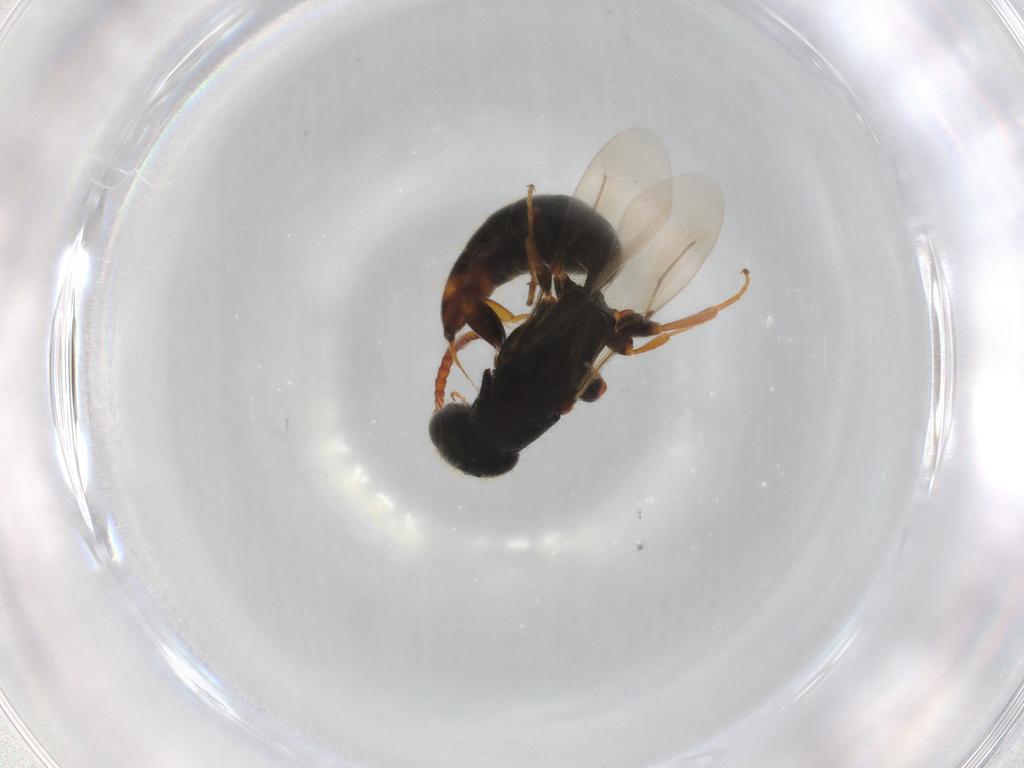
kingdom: Animalia
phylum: Arthropoda
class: Insecta
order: Hymenoptera
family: Bethylidae
